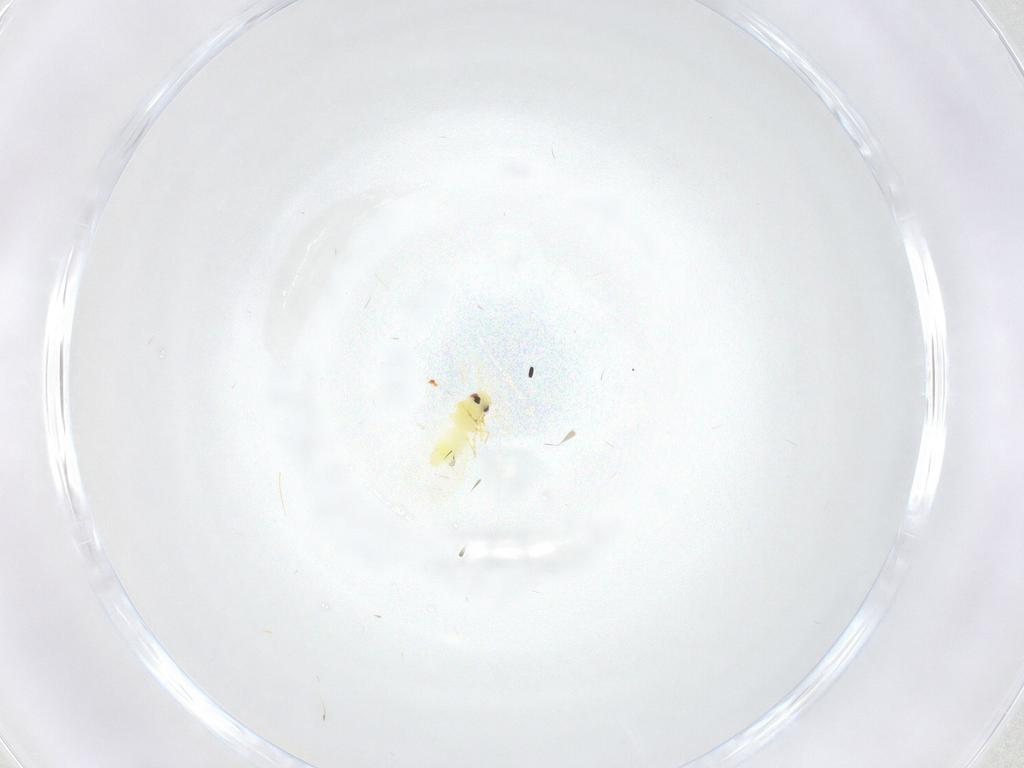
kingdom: Animalia
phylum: Arthropoda
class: Insecta
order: Hemiptera
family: Aleyrodidae
